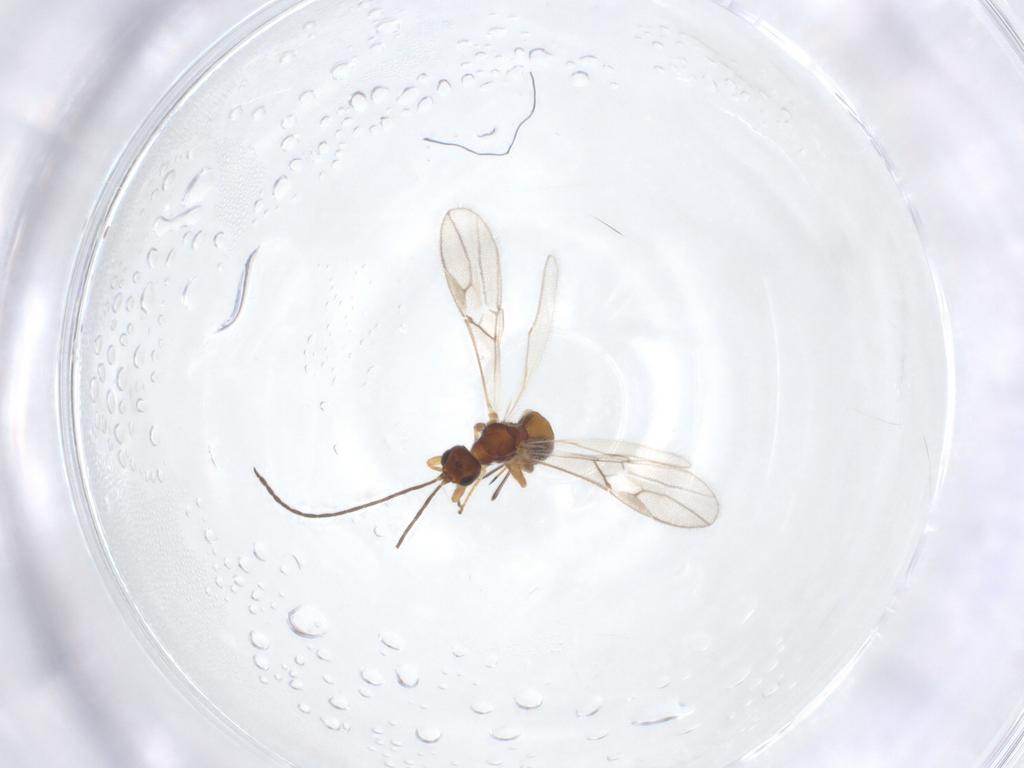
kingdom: Animalia
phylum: Arthropoda
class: Insecta
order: Hymenoptera
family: Braconidae
